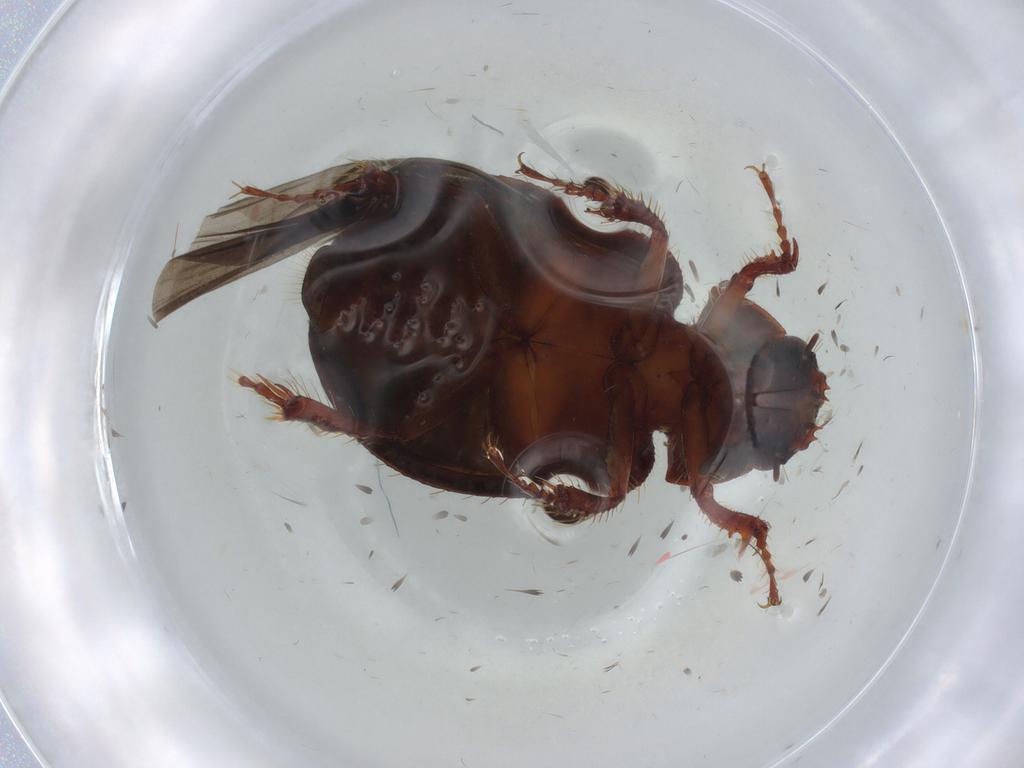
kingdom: Animalia
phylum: Arthropoda
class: Insecta
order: Coleoptera
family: Hybosoridae
